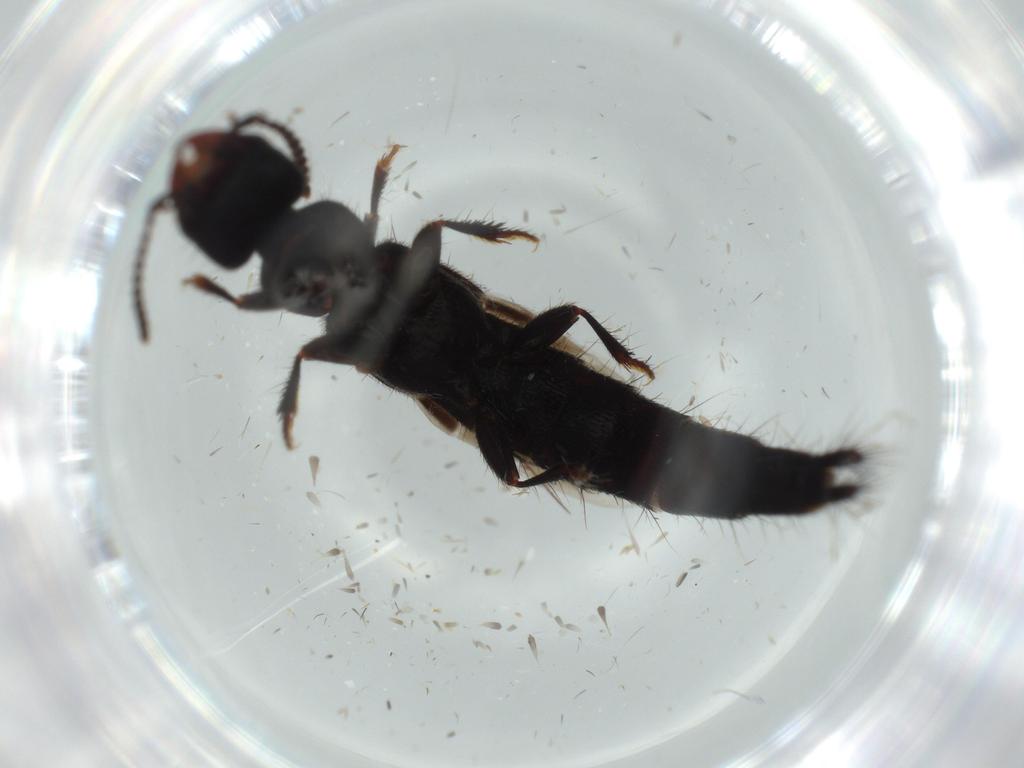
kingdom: Animalia
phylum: Arthropoda
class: Insecta
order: Coleoptera
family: Staphylinidae
